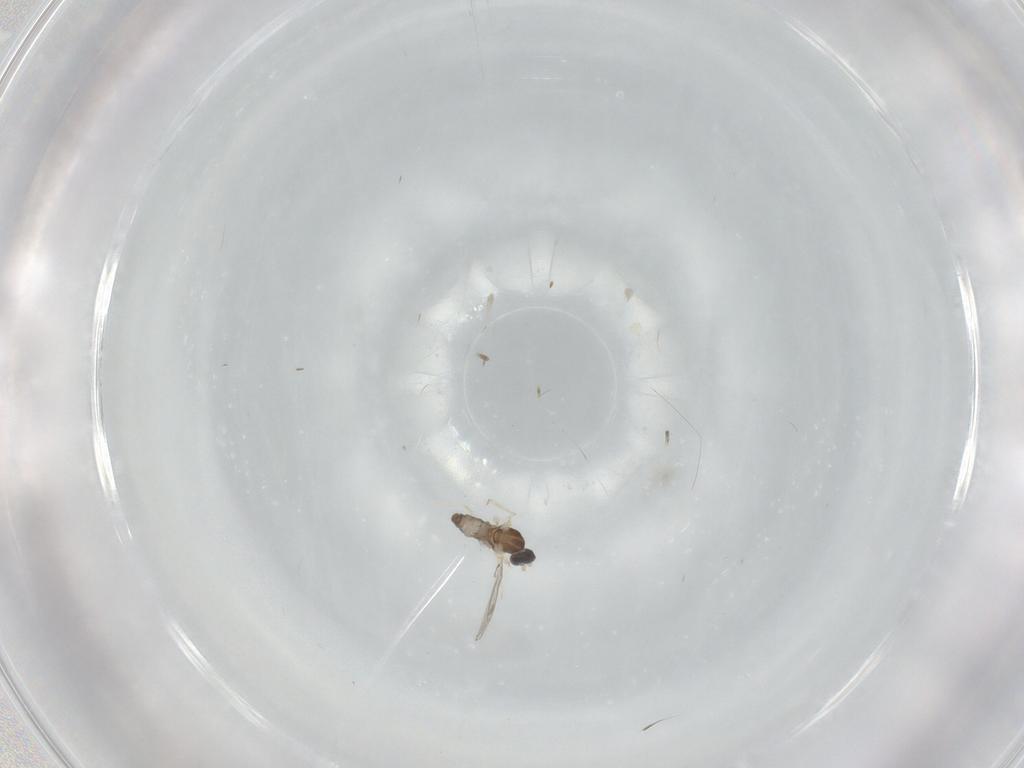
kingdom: Animalia
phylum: Arthropoda
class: Insecta
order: Diptera
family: Cecidomyiidae
